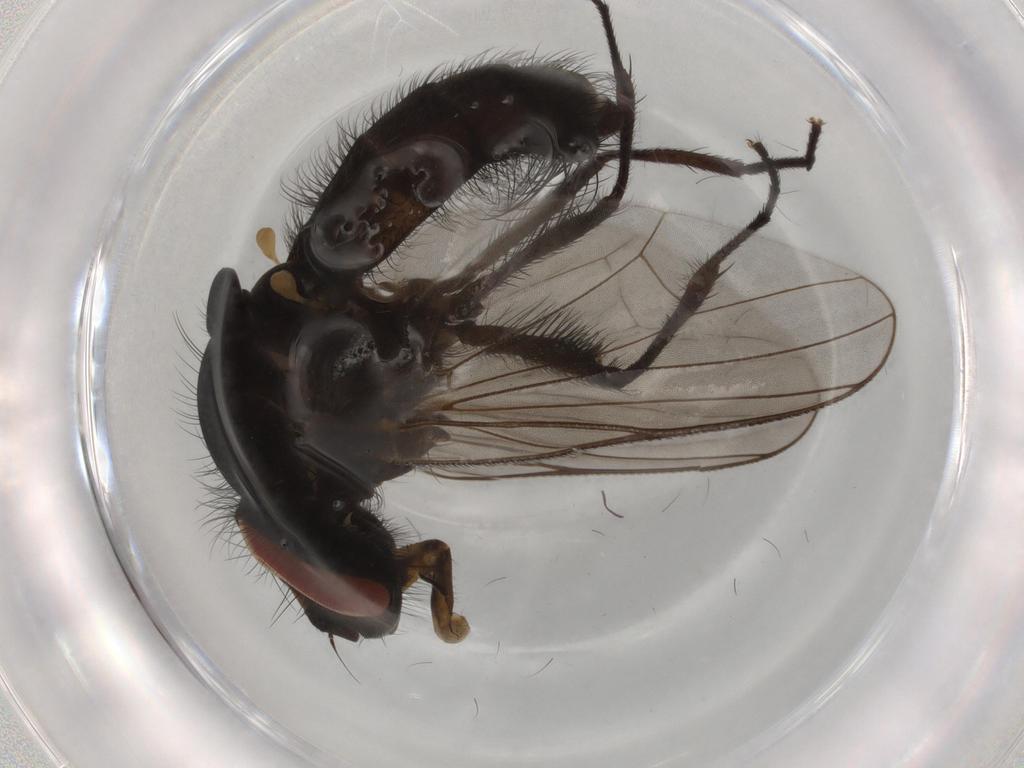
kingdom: Animalia
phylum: Arthropoda
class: Insecta
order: Diptera
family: Hybotidae
